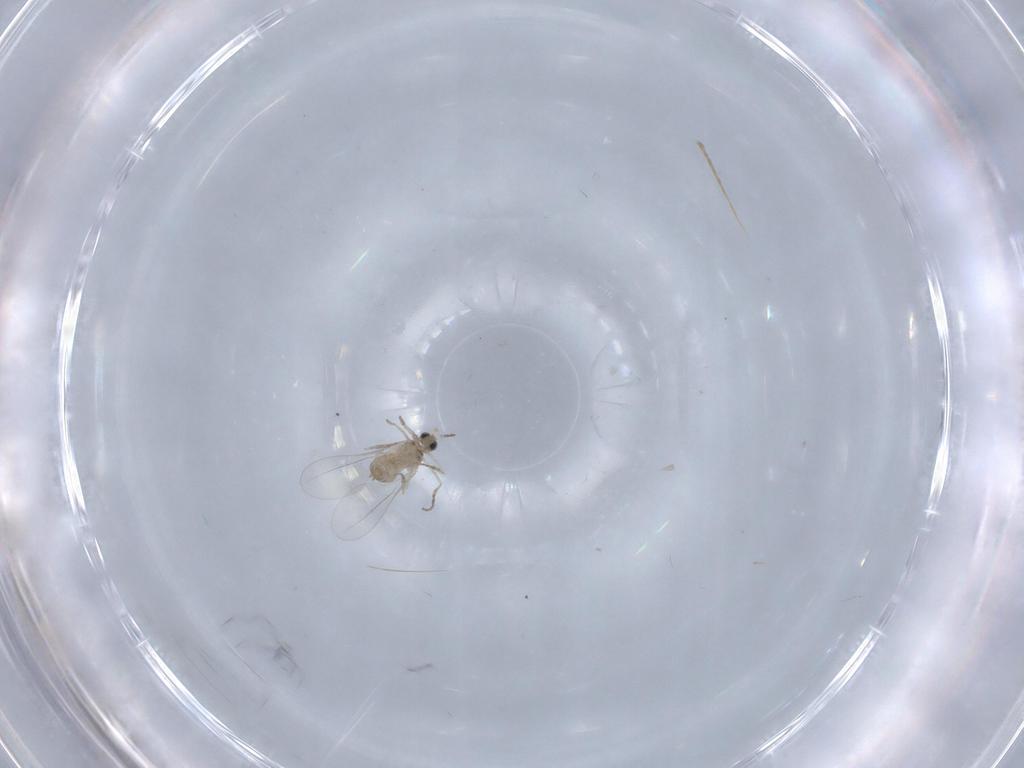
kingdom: Animalia
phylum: Arthropoda
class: Insecta
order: Diptera
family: Cecidomyiidae
